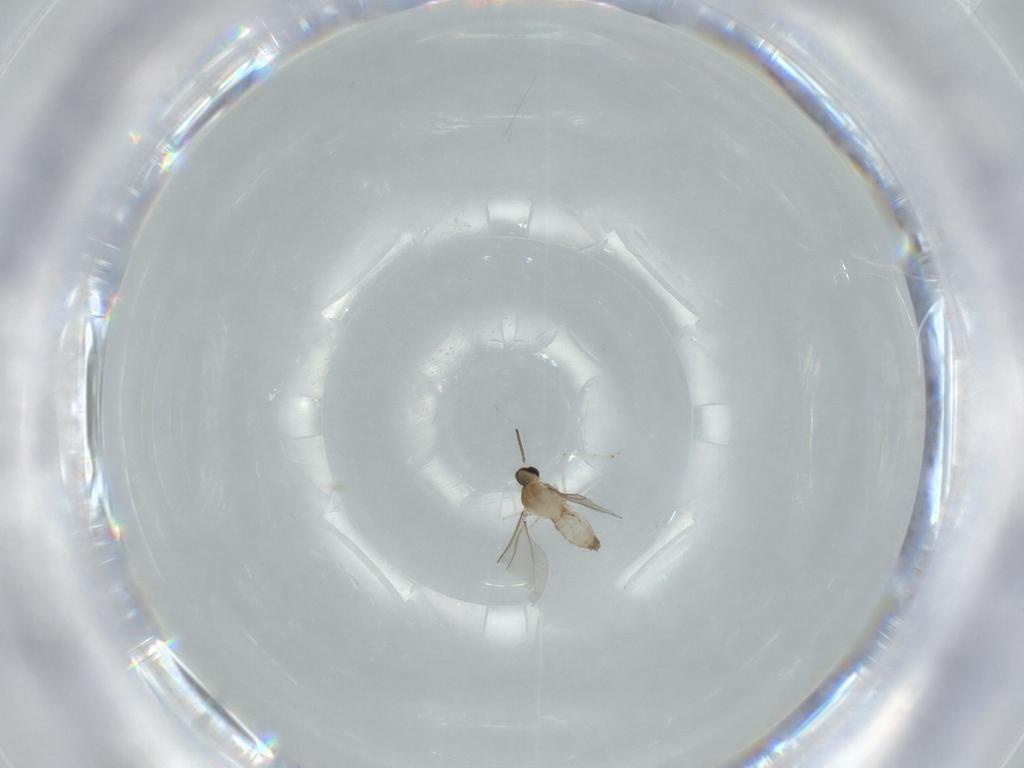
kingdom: Animalia
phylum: Arthropoda
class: Insecta
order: Diptera
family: Cecidomyiidae
